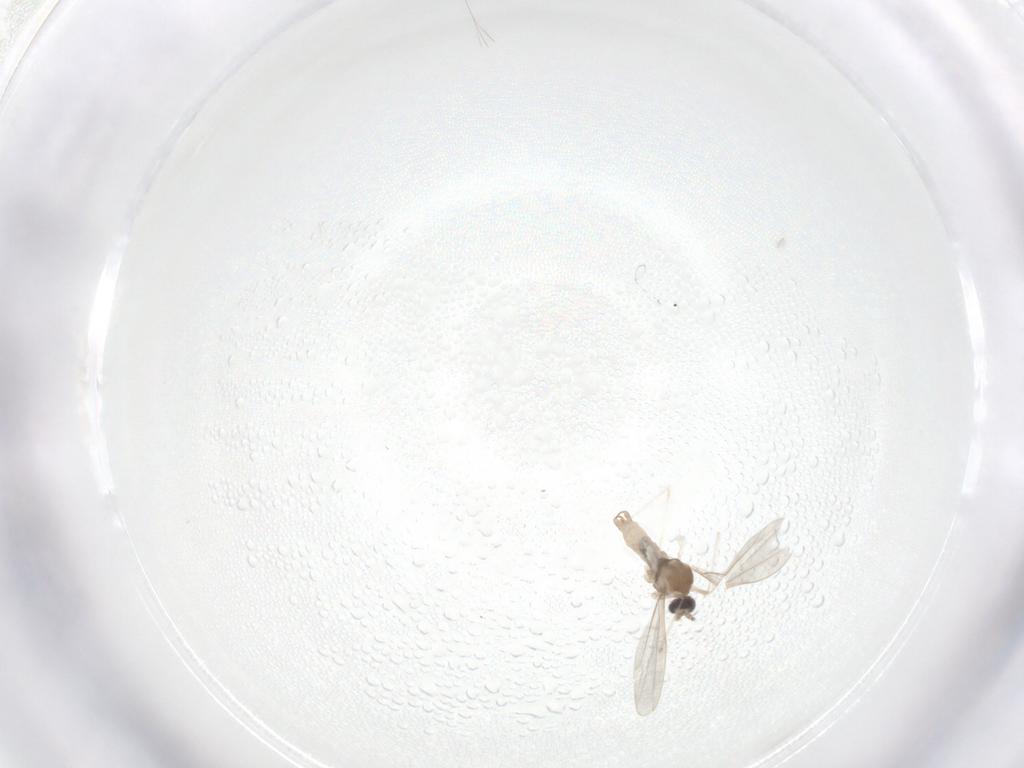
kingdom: Animalia
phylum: Arthropoda
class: Insecta
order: Diptera
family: Cecidomyiidae
